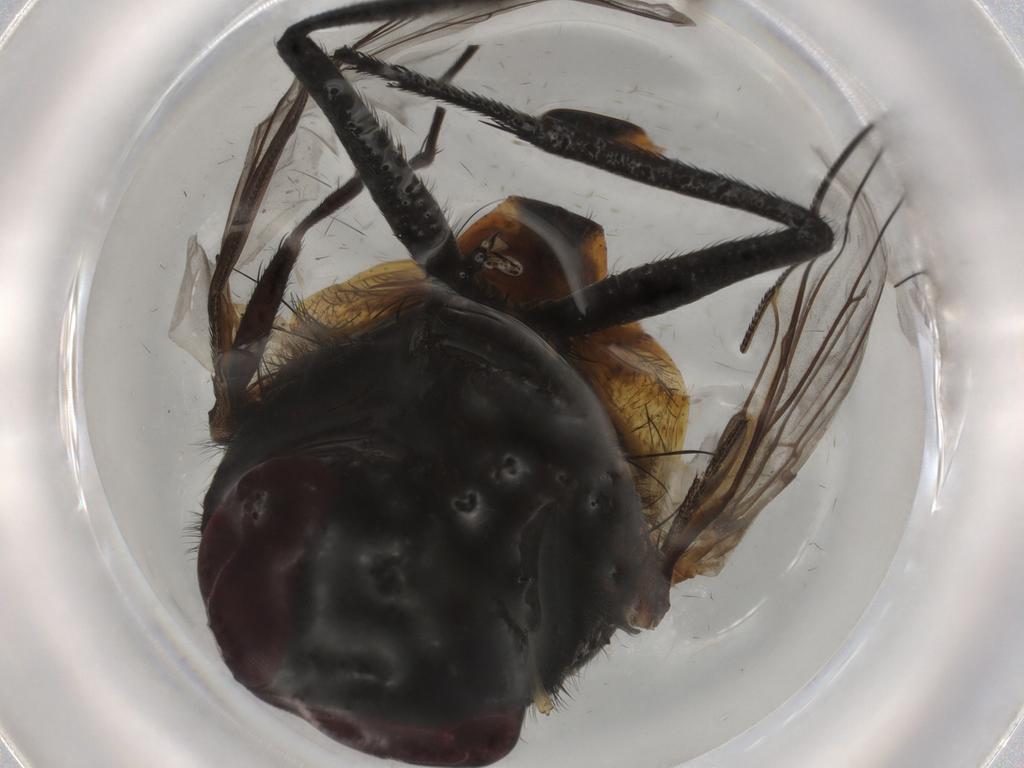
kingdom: Animalia
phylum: Arthropoda
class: Insecta
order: Diptera
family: Muscidae
